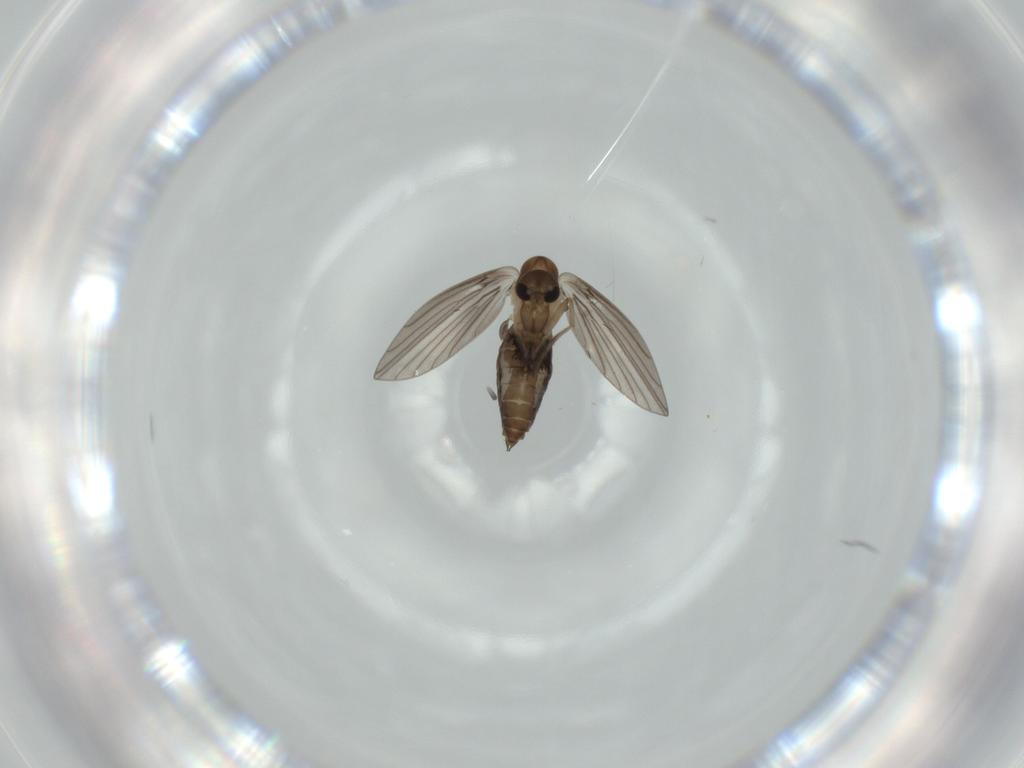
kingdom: Animalia
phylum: Arthropoda
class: Insecta
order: Diptera
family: Psychodidae
